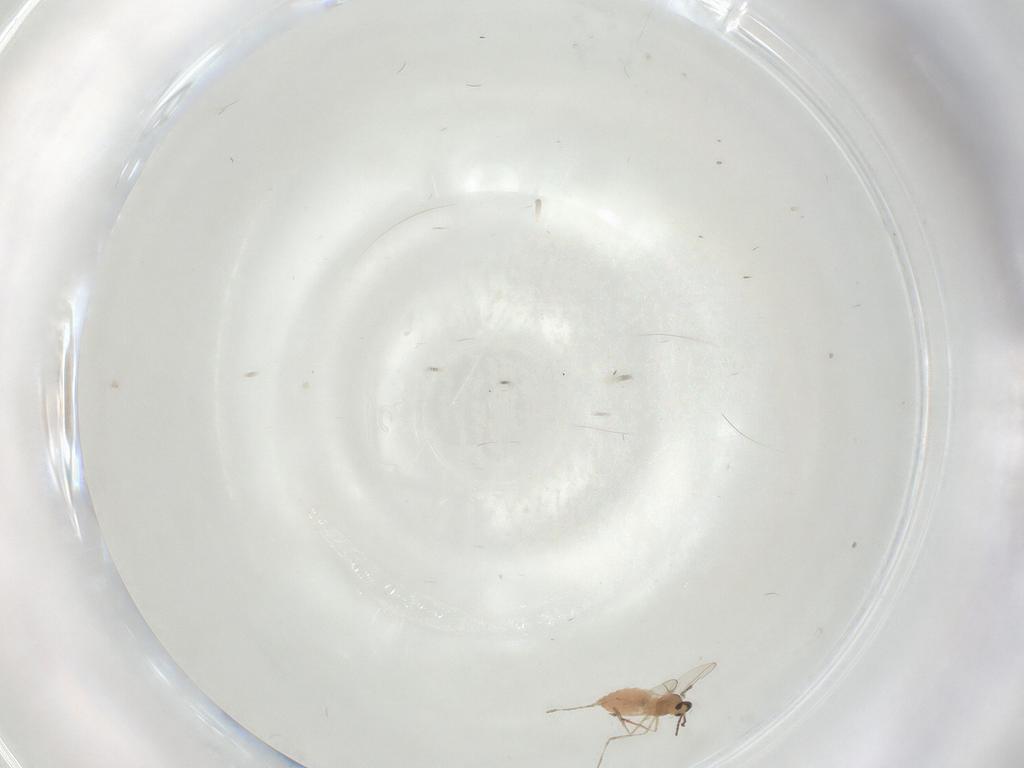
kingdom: Animalia
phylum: Arthropoda
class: Insecta
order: Diptera
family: Cecidomyiidae
